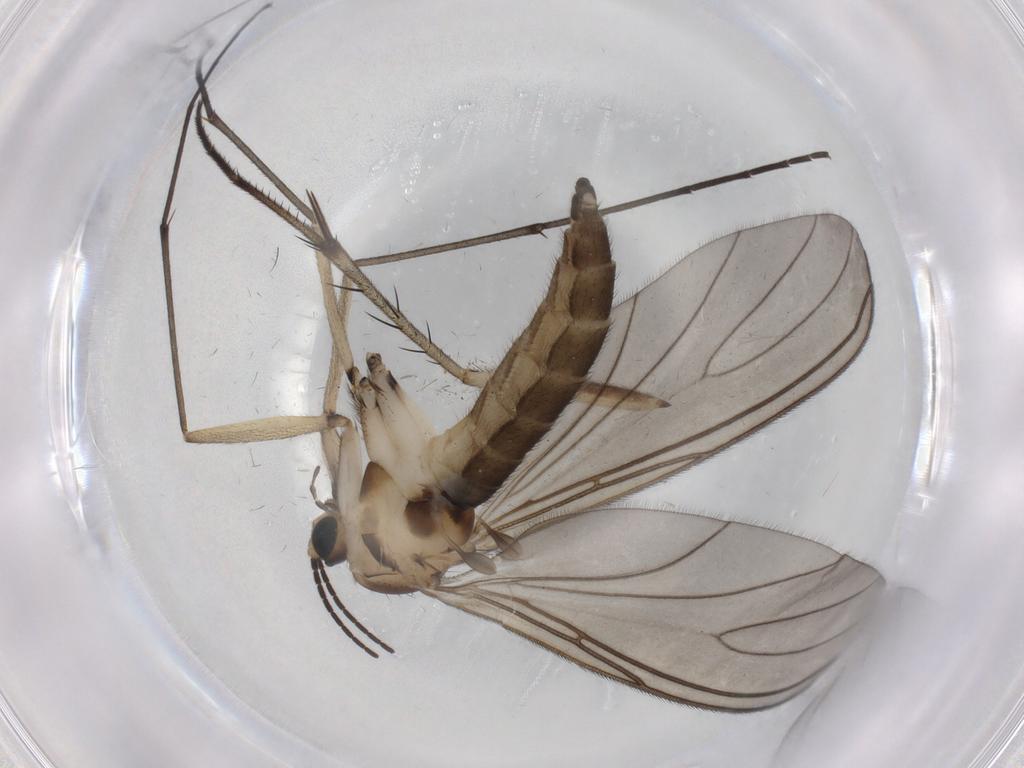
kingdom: Animalia
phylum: Arthropoda
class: Insecta
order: Diptera
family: Sciaridae
